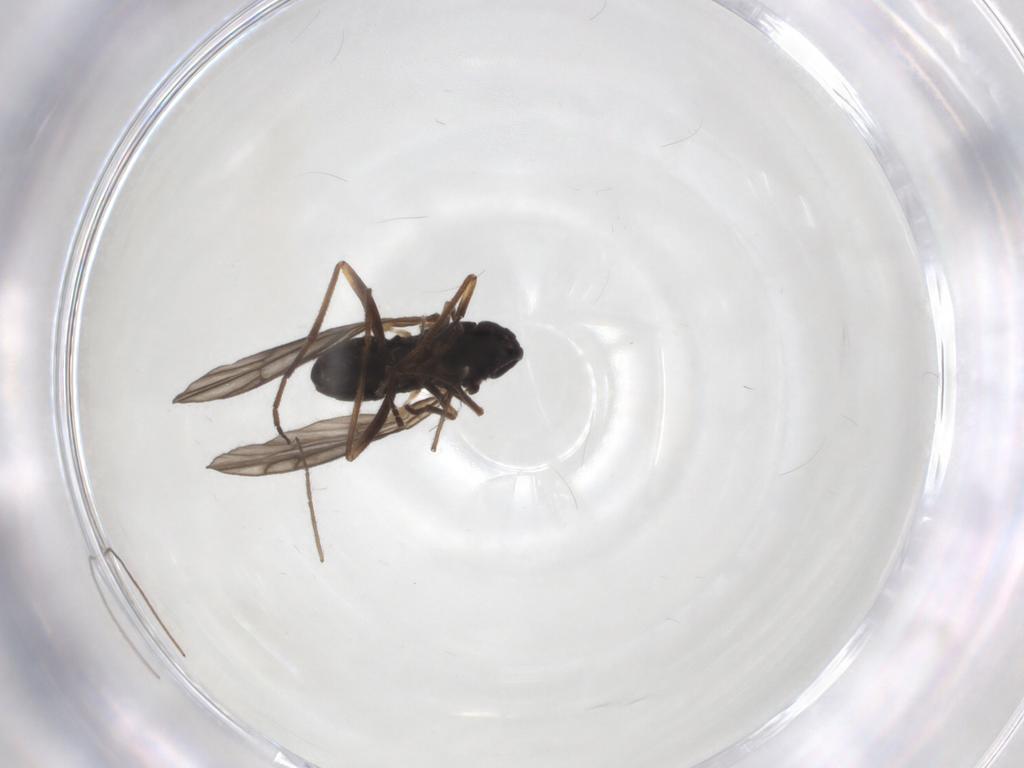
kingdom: Animalia
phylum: Arthropoda
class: Insecta
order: Diptera
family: Empididae
